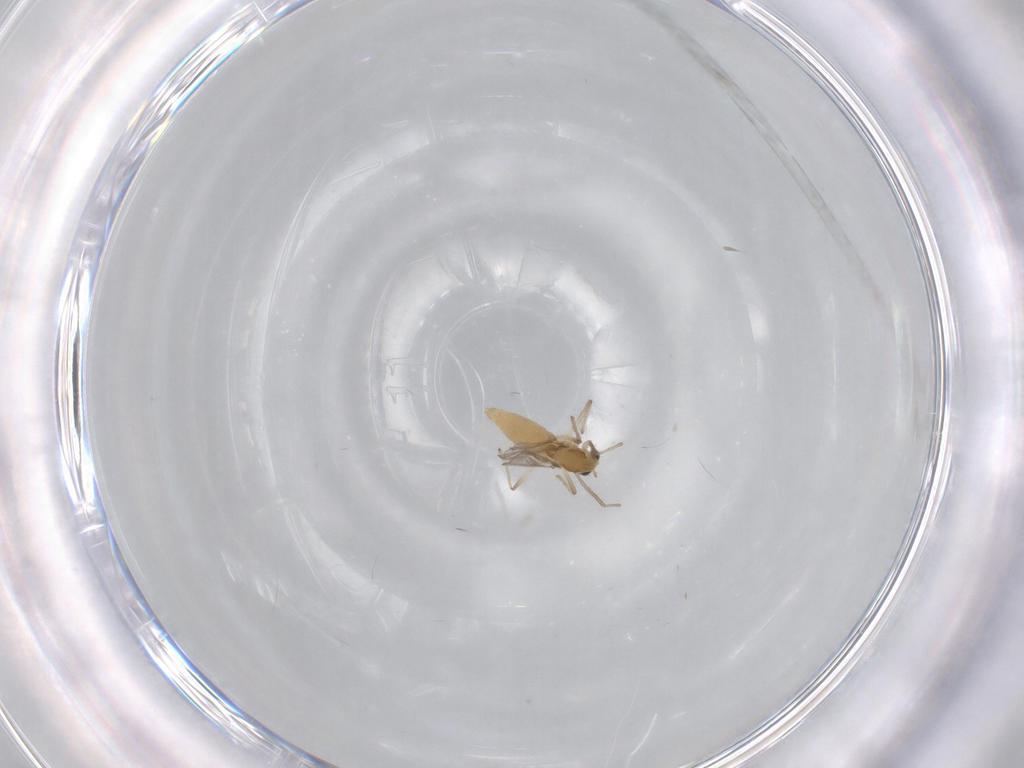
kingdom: Animalia
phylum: Arthropoda
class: Insecta
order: Diptera
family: Chironomidae
